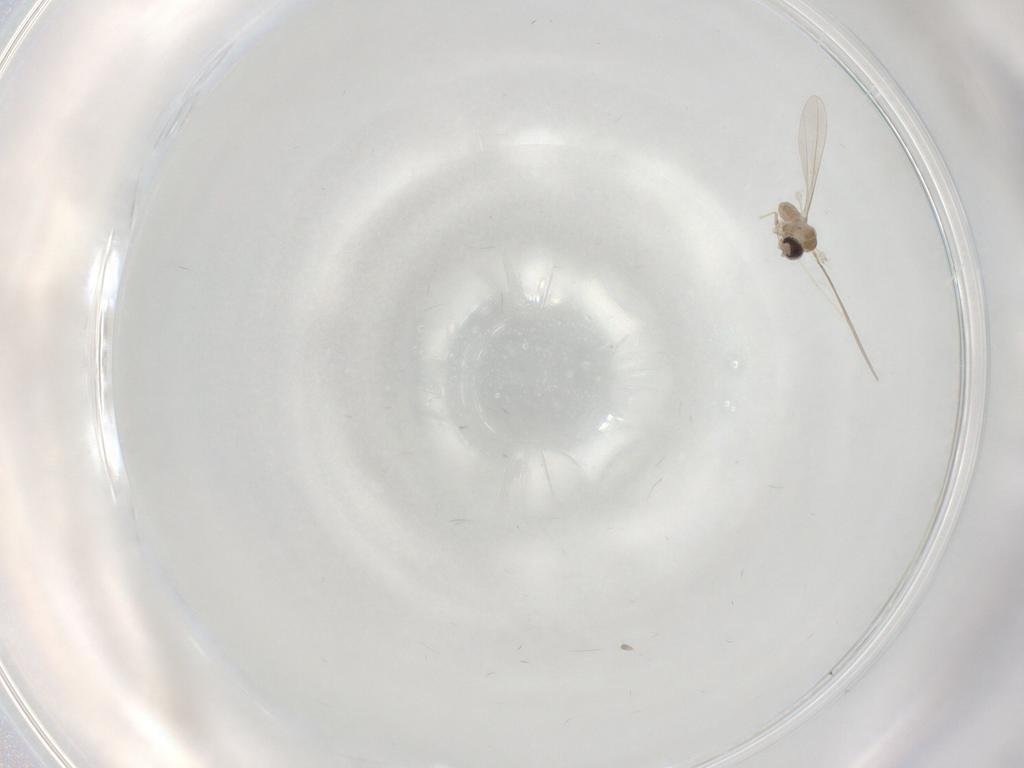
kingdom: Animalia
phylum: Arthropoda
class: Insecta
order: Diptera
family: Cecidomyiidae
